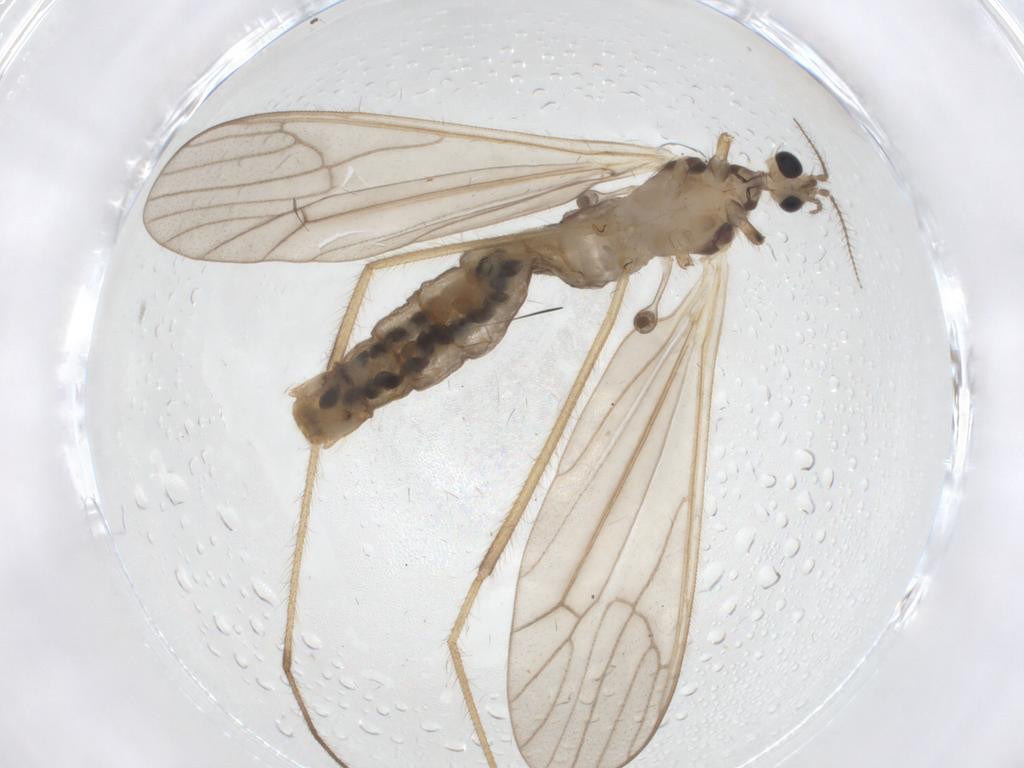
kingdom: Animalia
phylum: Arthropoda
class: Insecta
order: Diptera
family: Limoniidae
